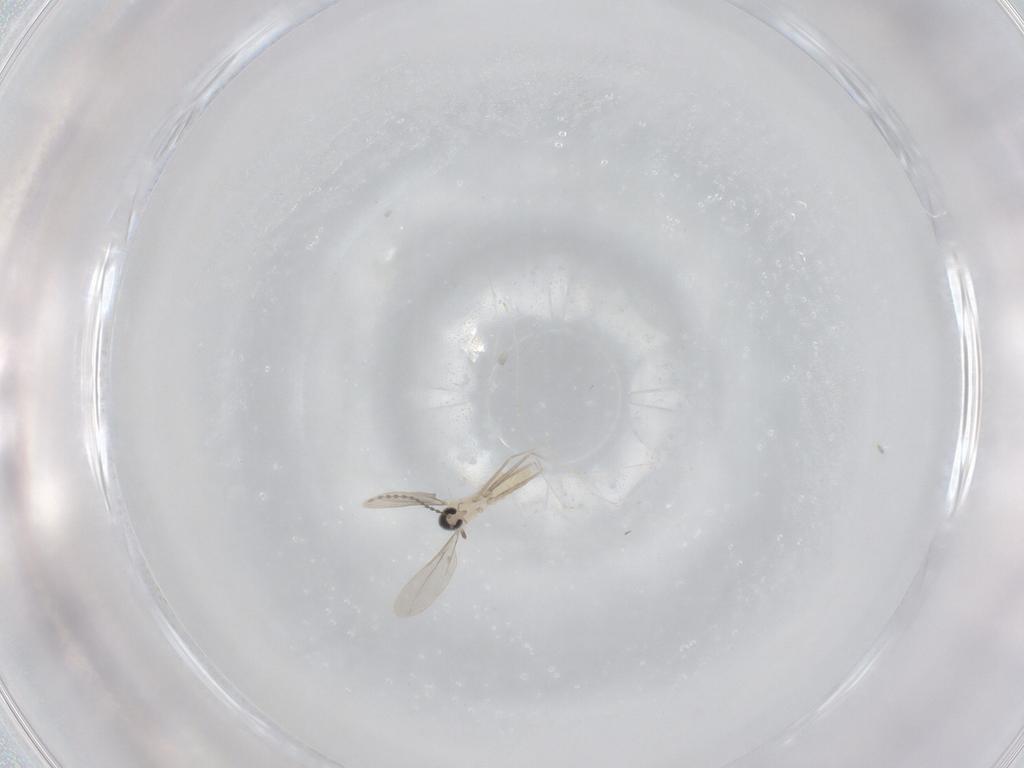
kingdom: Animalia
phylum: Arthropoda
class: Insecta
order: Diptera
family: Cecidomyiidae
